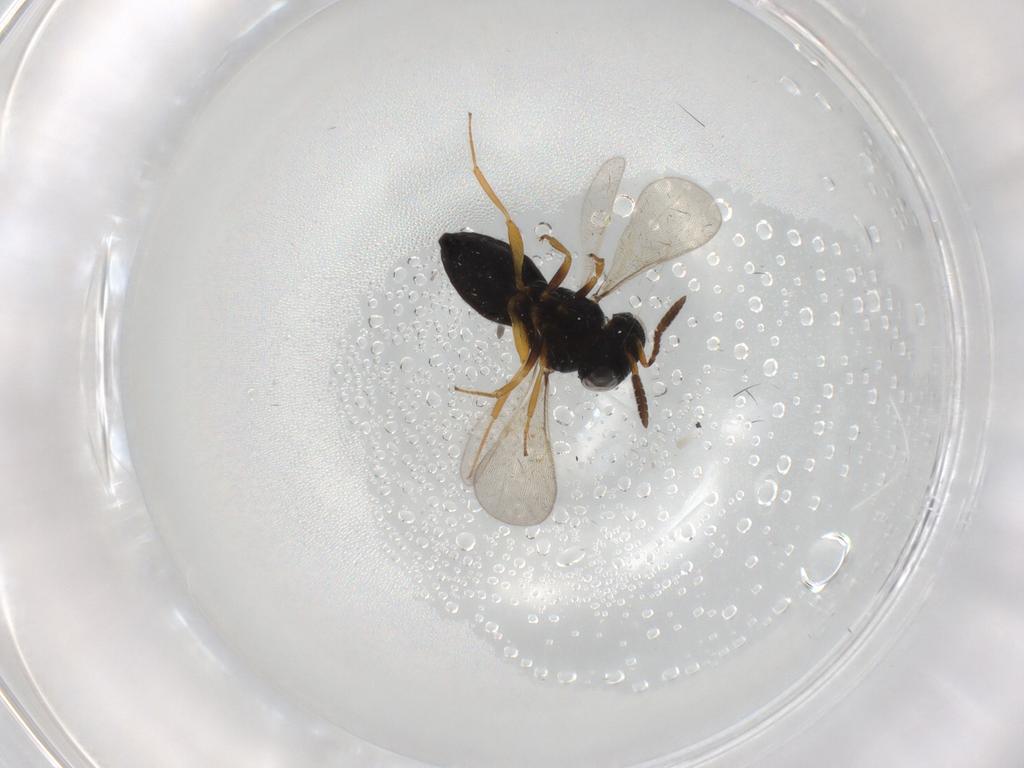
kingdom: Animalia
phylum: Arthropoda
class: Insecta
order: Hymenoptera
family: Scelionidae
